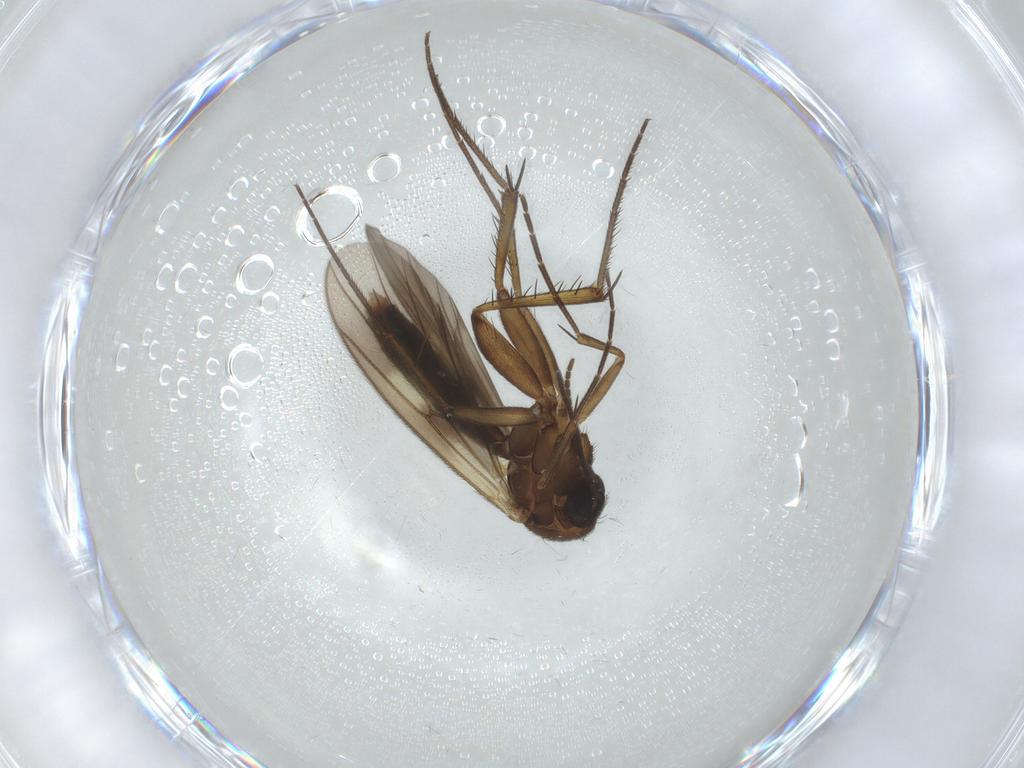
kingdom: Animalia
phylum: Arthropoda
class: Insecta
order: Diptera
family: Mycetophilidae
